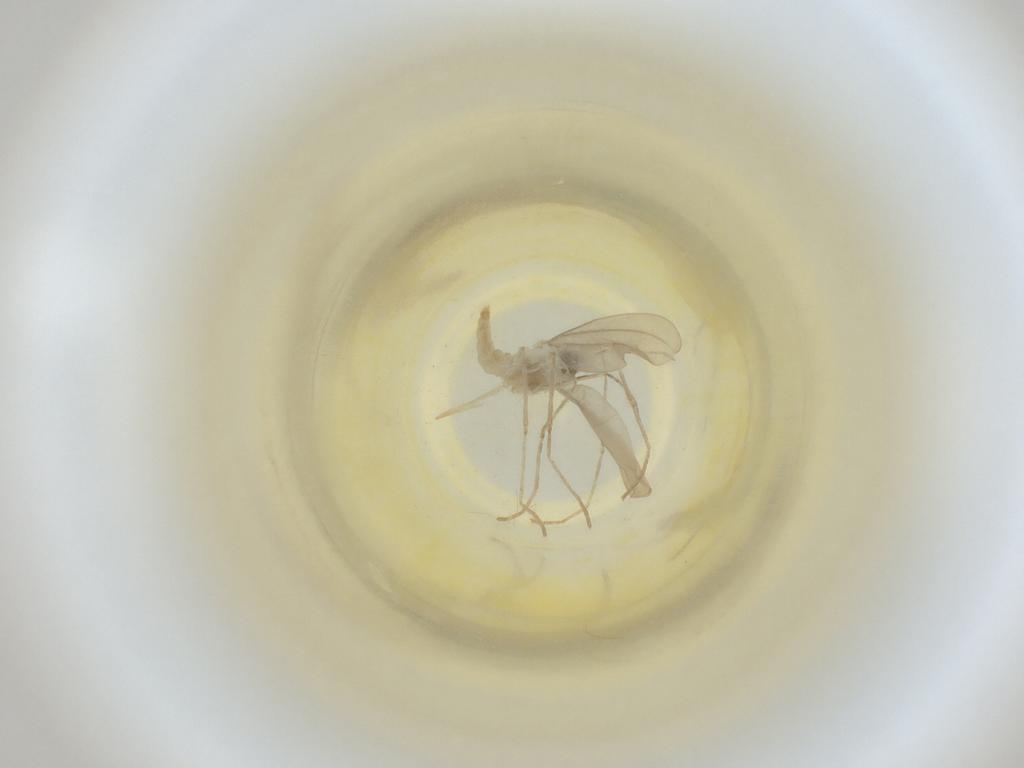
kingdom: Animalia
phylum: Arthropoda
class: Insecta
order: Diptera
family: Cecidomyiidae
